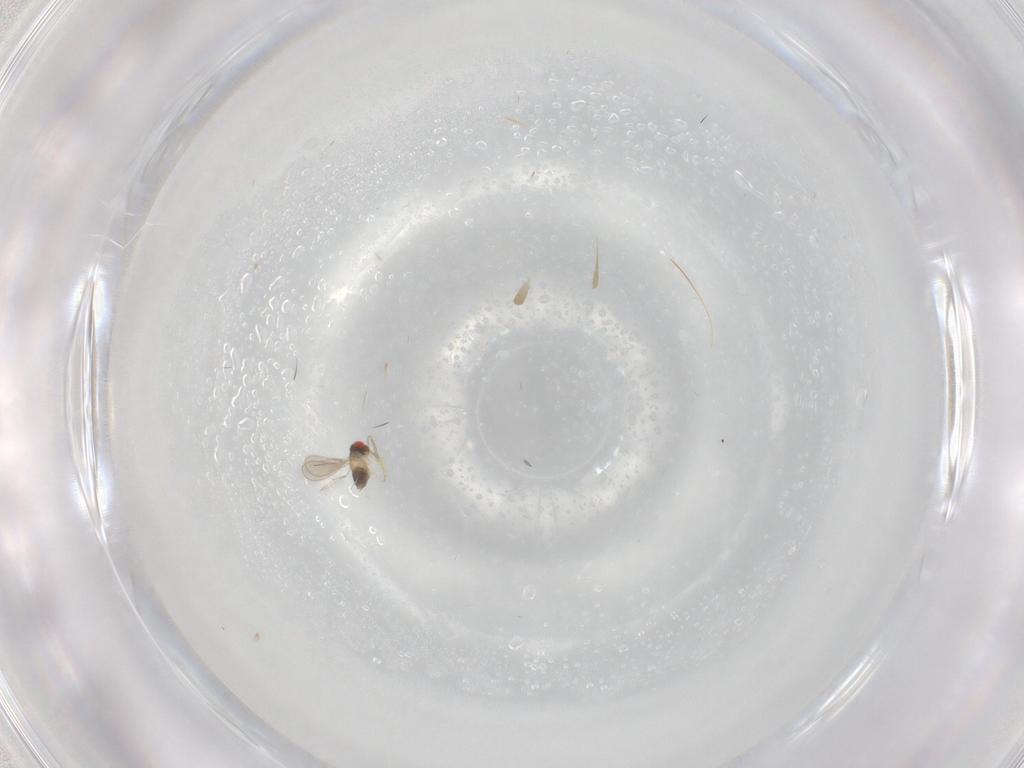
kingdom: Animalia
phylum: Arthropoda
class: Insecta
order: Hymenoptera
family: Aphelinidae
